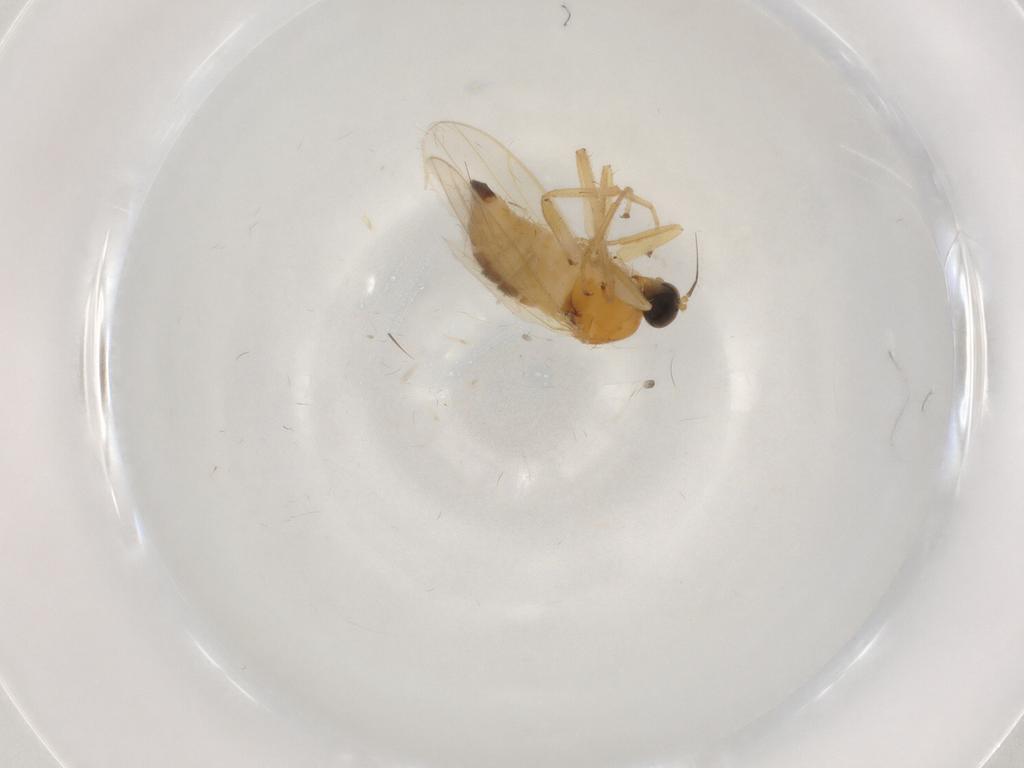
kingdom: Animalia
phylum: Arthropoda
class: Insecta
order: Diptera
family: Hybotidae
